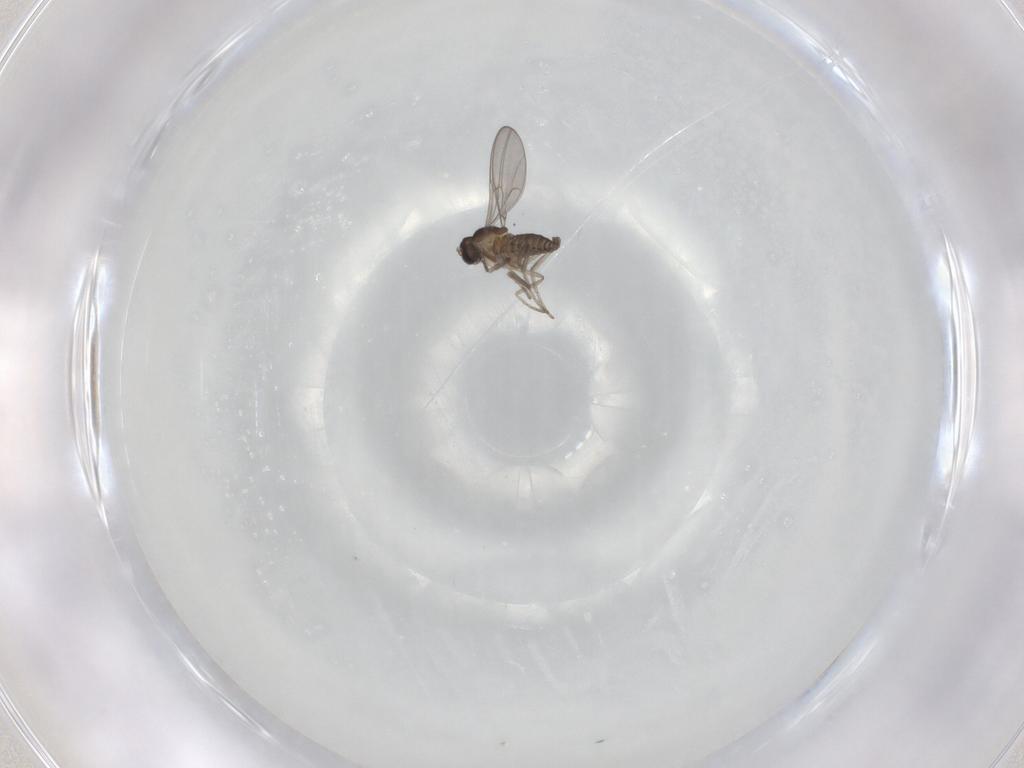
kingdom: Animalia
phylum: Arthropoda
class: Insecta
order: Diptera
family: Cecidomyiidae
